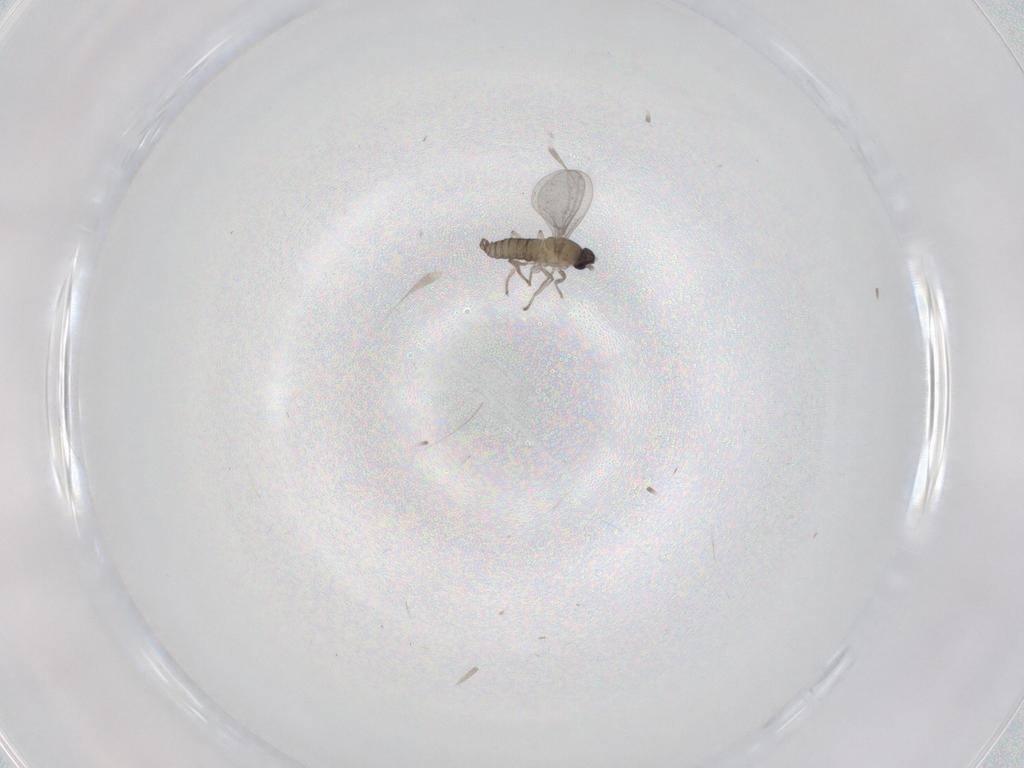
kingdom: Animalia
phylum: Arthropoda
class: Insecta
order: Diptera
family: Cecidomyiidae
